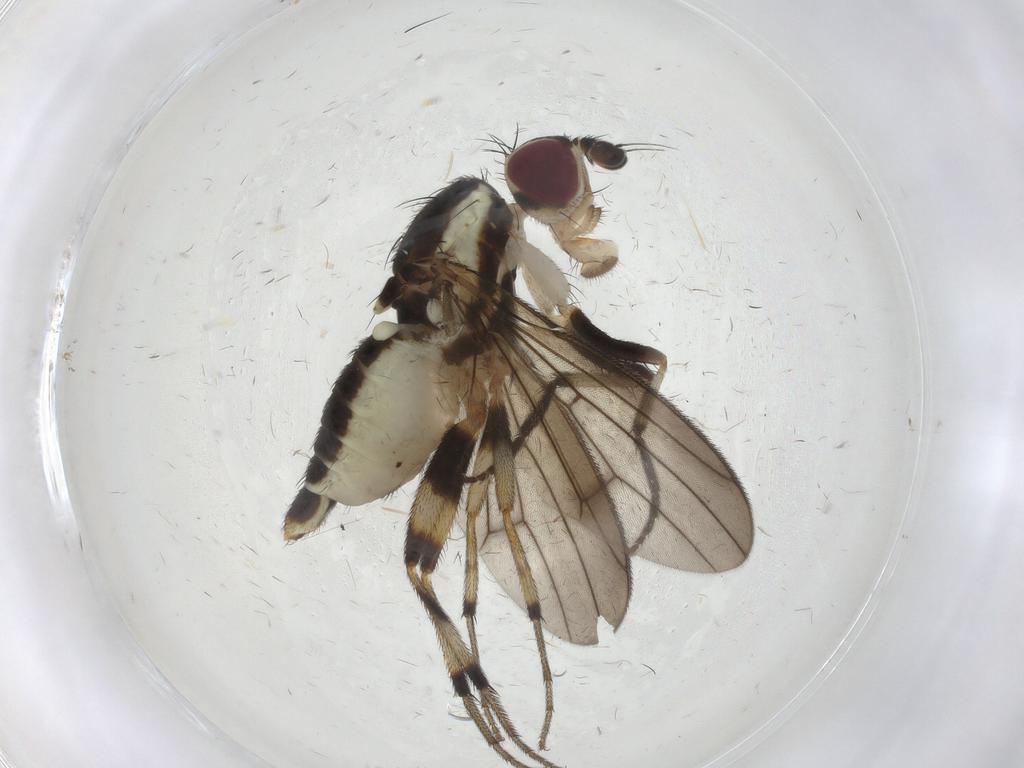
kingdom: Animalia
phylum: Arthropoda
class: Insecta
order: Diptera
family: Pseudopomyzidae
